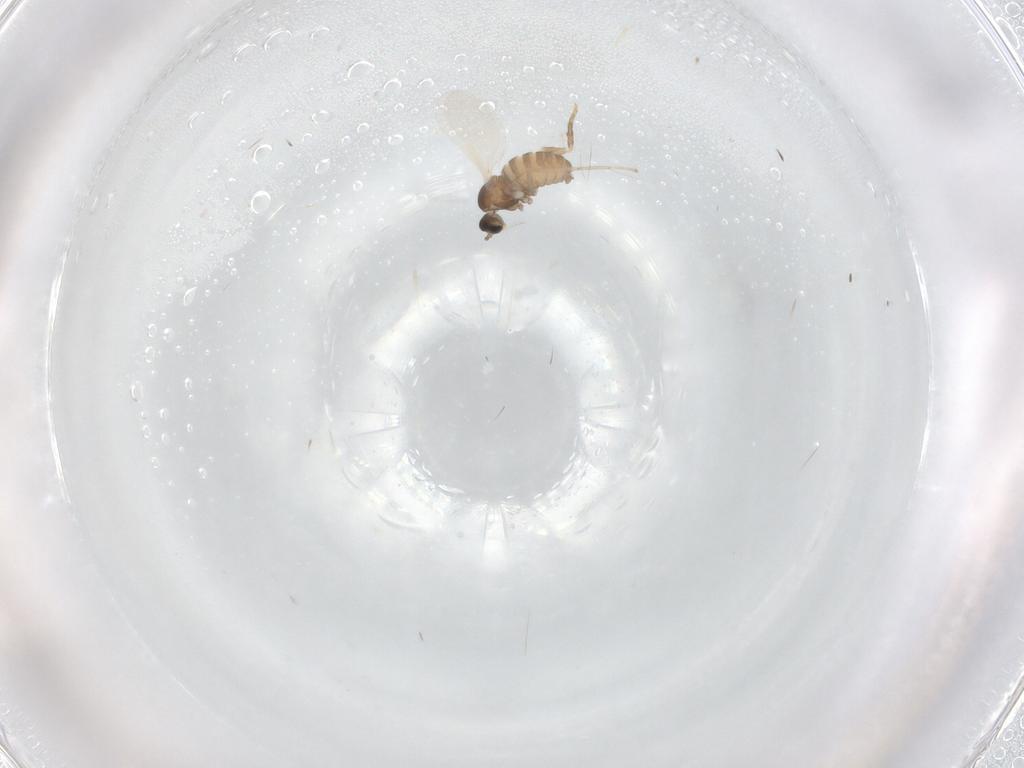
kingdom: Animalia
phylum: Arthropoda
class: Insecta
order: Diptera
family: Cecidomyiidae
